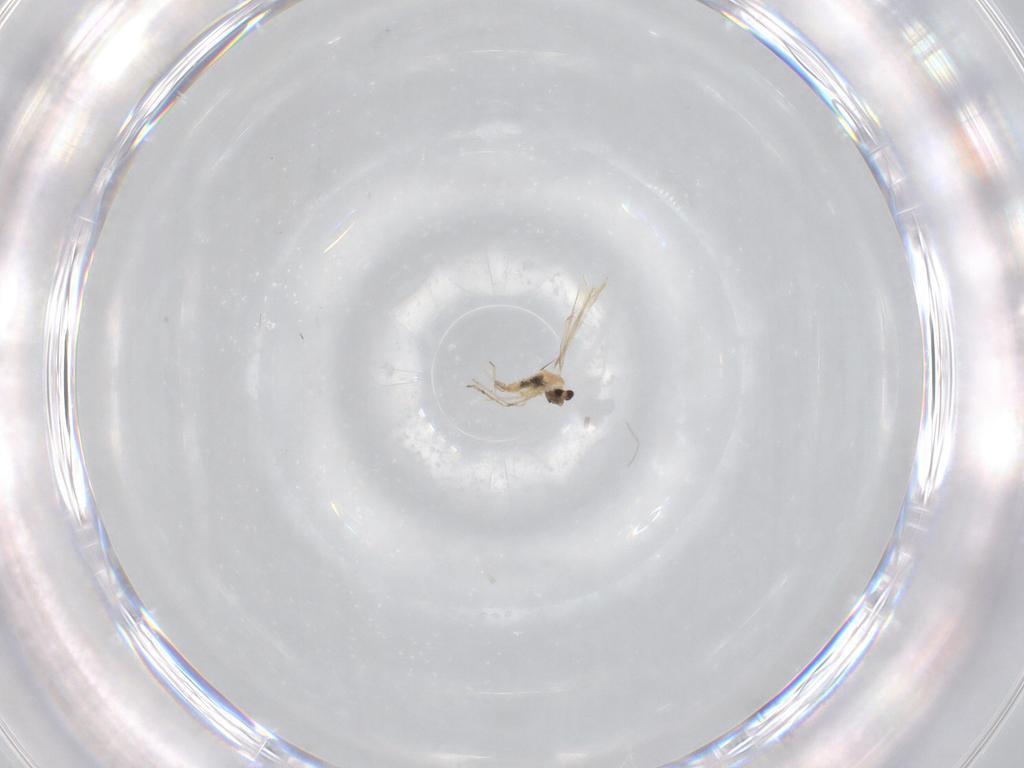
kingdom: Animalia
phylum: Arthropoda
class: Insecta
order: Diptera
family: Cecidomyiidae
